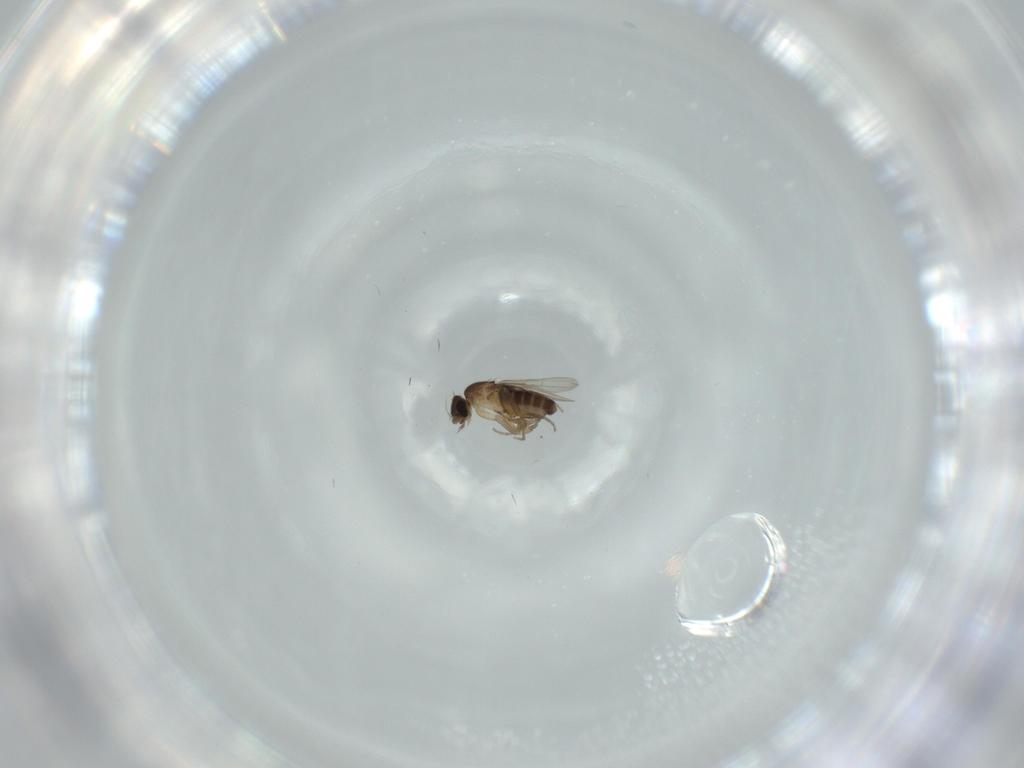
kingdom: Animalia
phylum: Arthropoda
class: Insecta
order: Diptera
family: Phoridae
